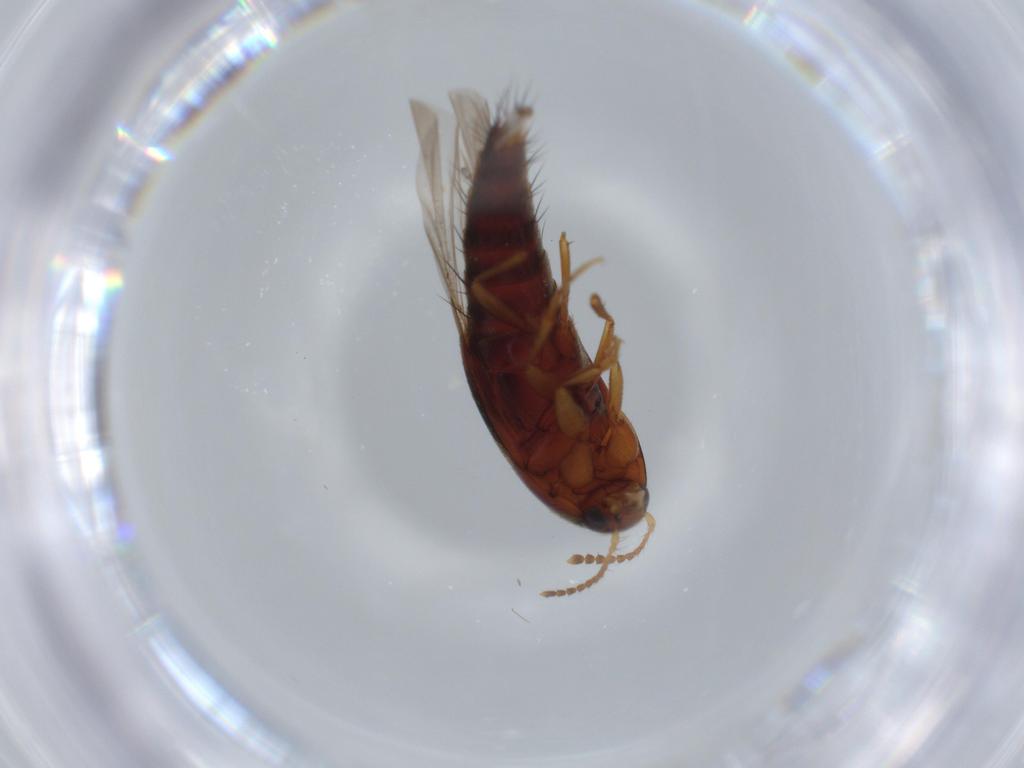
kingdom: Animalia
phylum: Arthropoda
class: Insecta
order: Coleoptera
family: Staphylinidae
